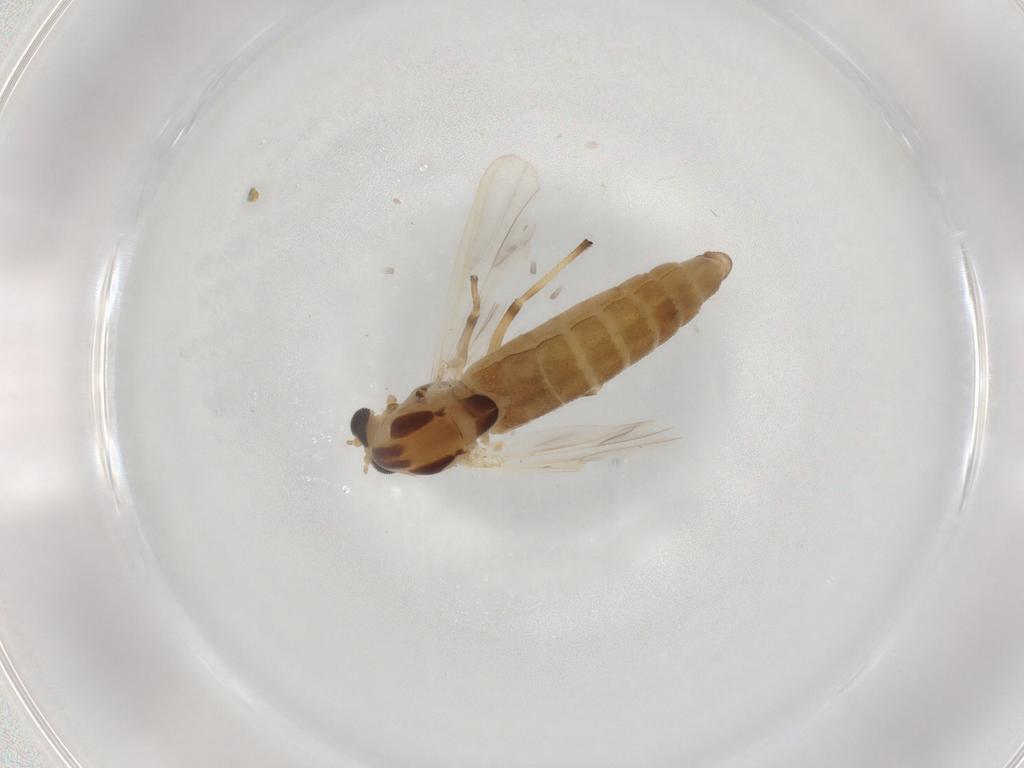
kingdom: Animalia
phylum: Arthropoda
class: Insecta
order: Diptera
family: Chironomidae
